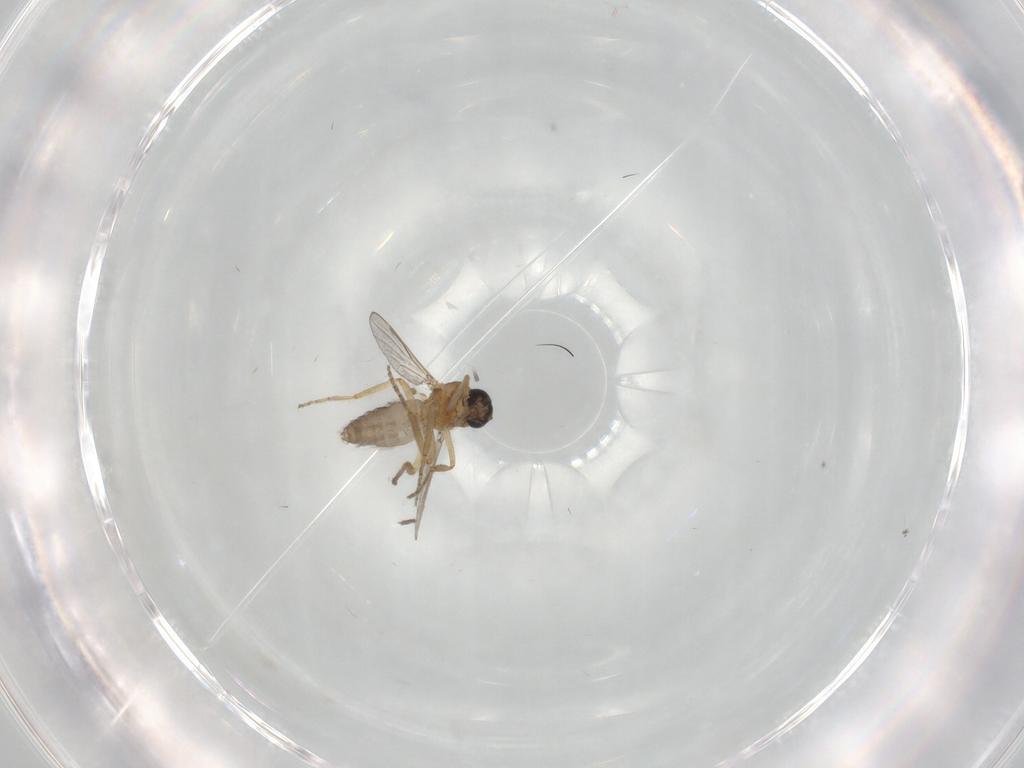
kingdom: Animalia
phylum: Arthropoda
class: Insecta
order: Diptera
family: Ceratopogonidae
